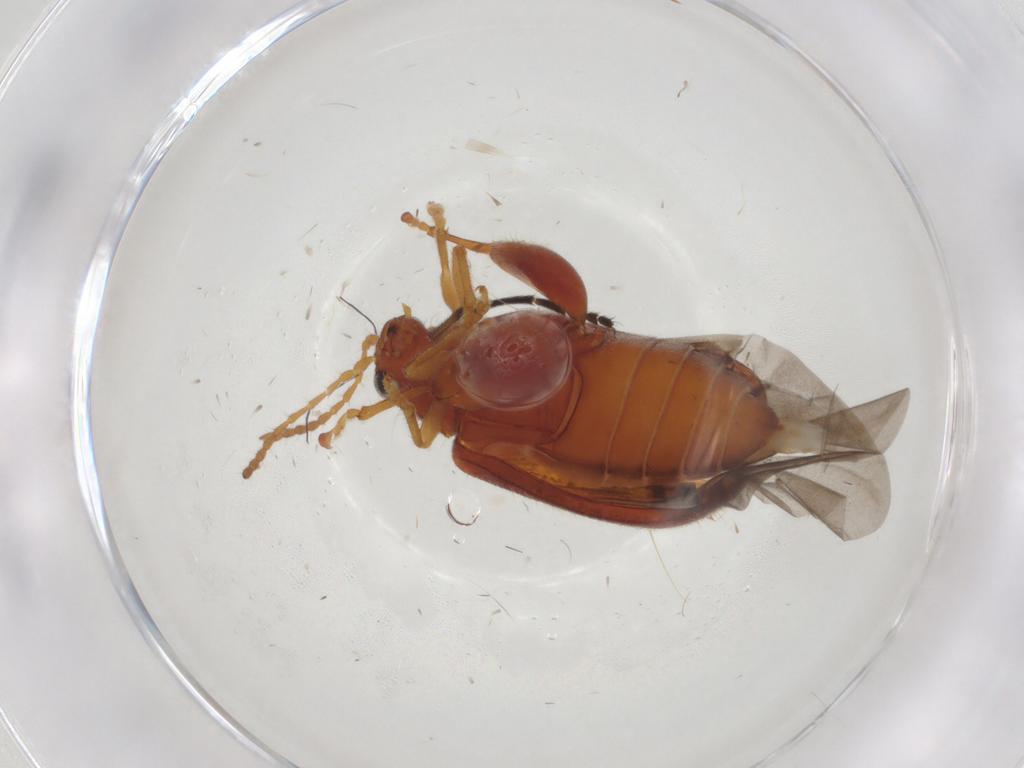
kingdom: Animalia
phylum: Arthropoda
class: Insecta
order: Coleoptera
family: Chrysomelidae
